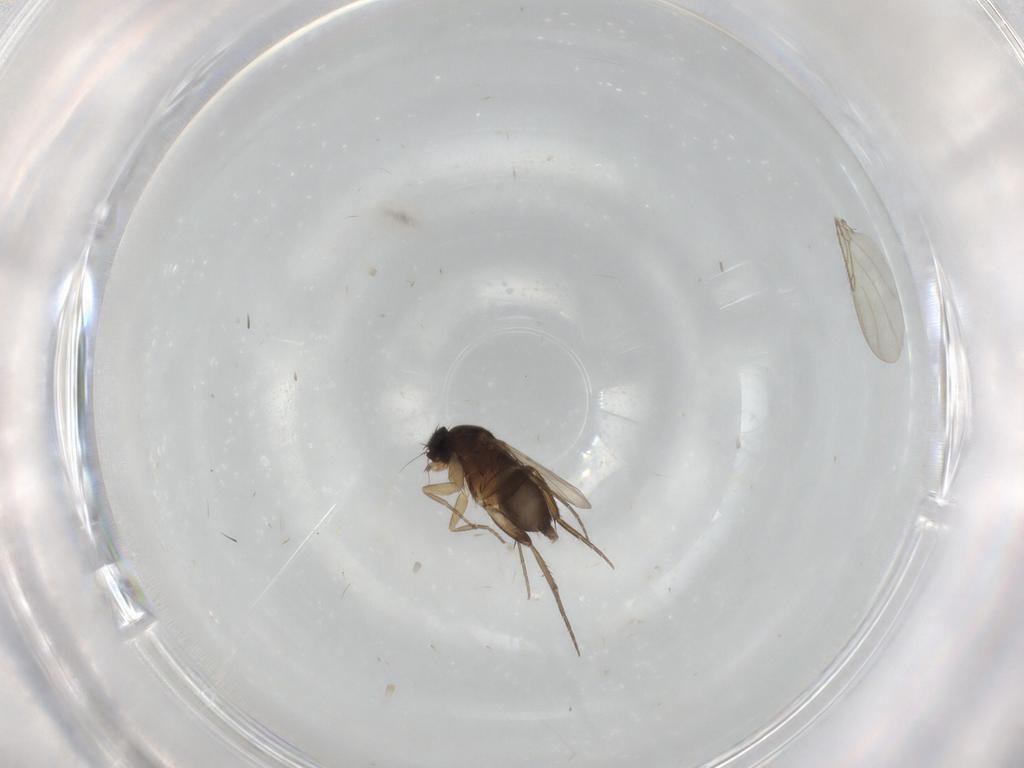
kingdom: Animalia
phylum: Arthropoda
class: Insecta
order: Diptera
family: Phoridae
